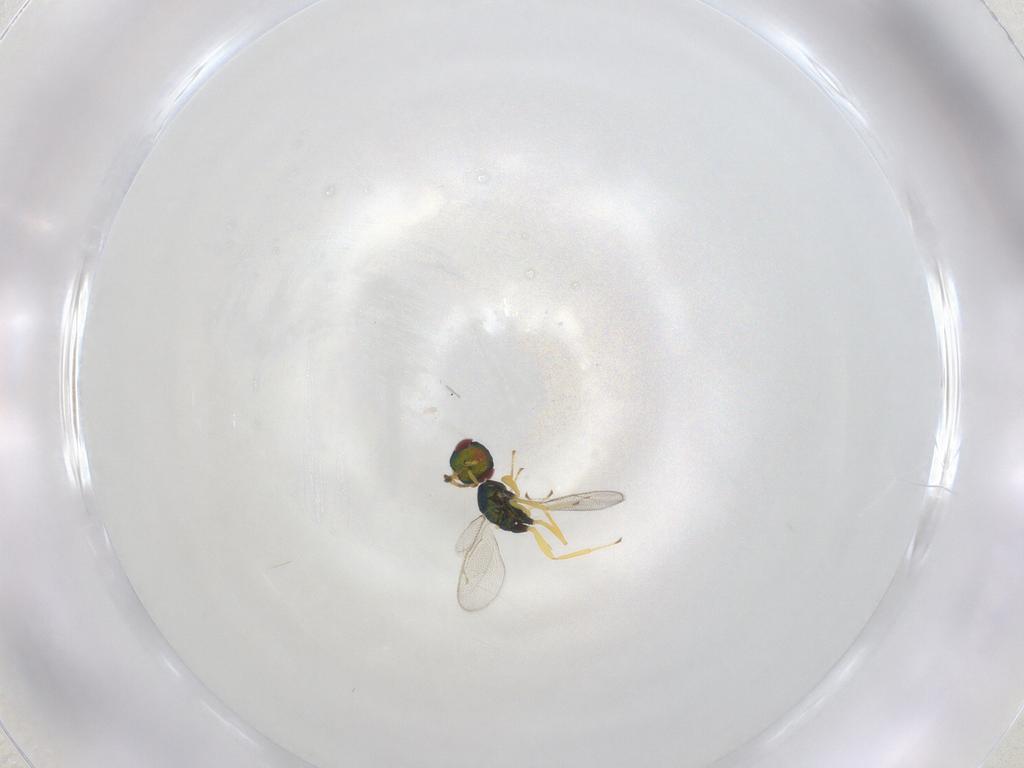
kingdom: Animalia
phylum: Arthropoda
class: Insecta
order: Hymenoptera
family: Pteromalidae
